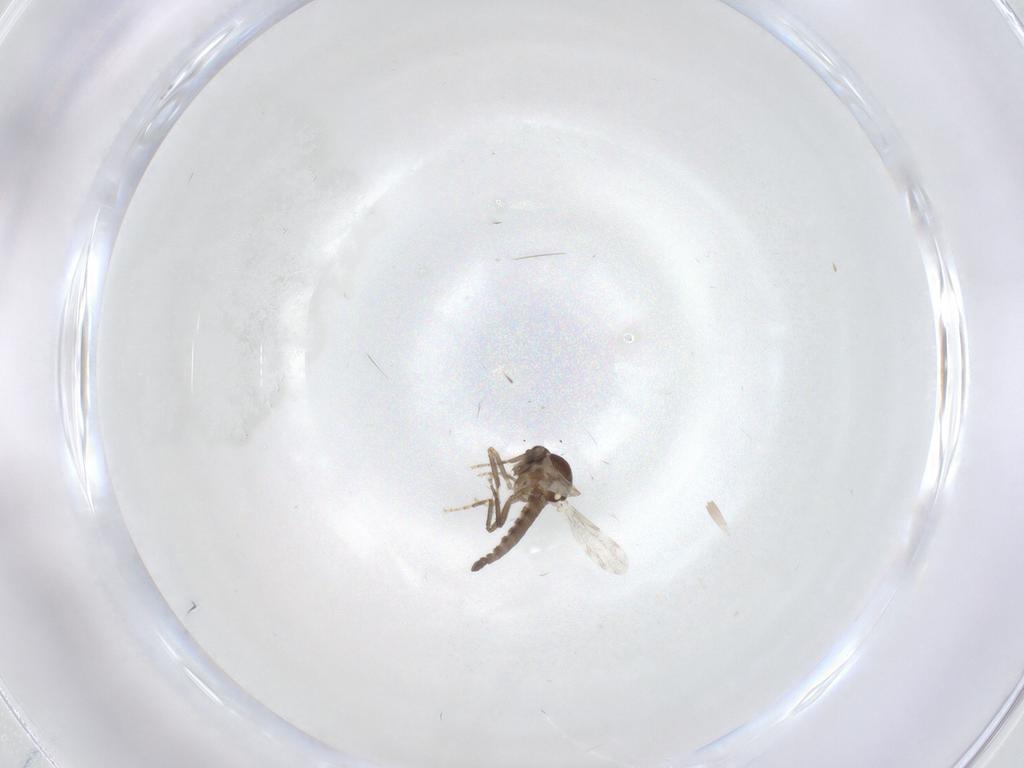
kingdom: Animalia
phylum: Arthropoda
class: Insecta
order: Diptera
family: Ceratopogonidae
